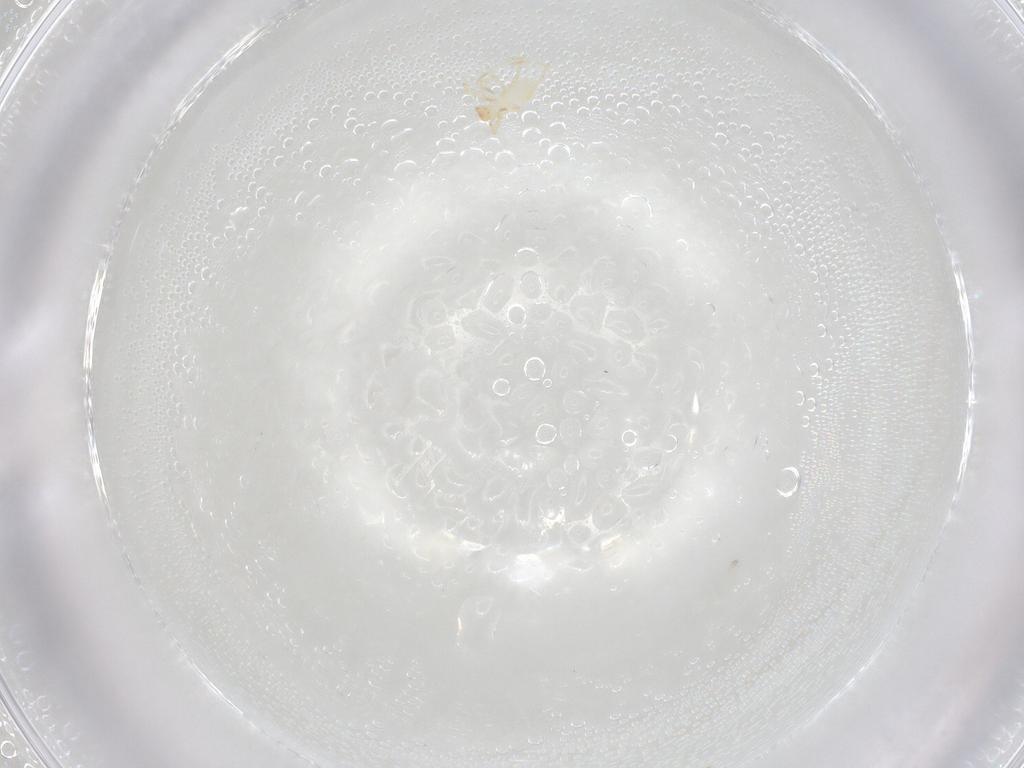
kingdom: Animalia
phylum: Arthropoda
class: Arachnida
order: Trombidiformes
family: Erythraeidae
